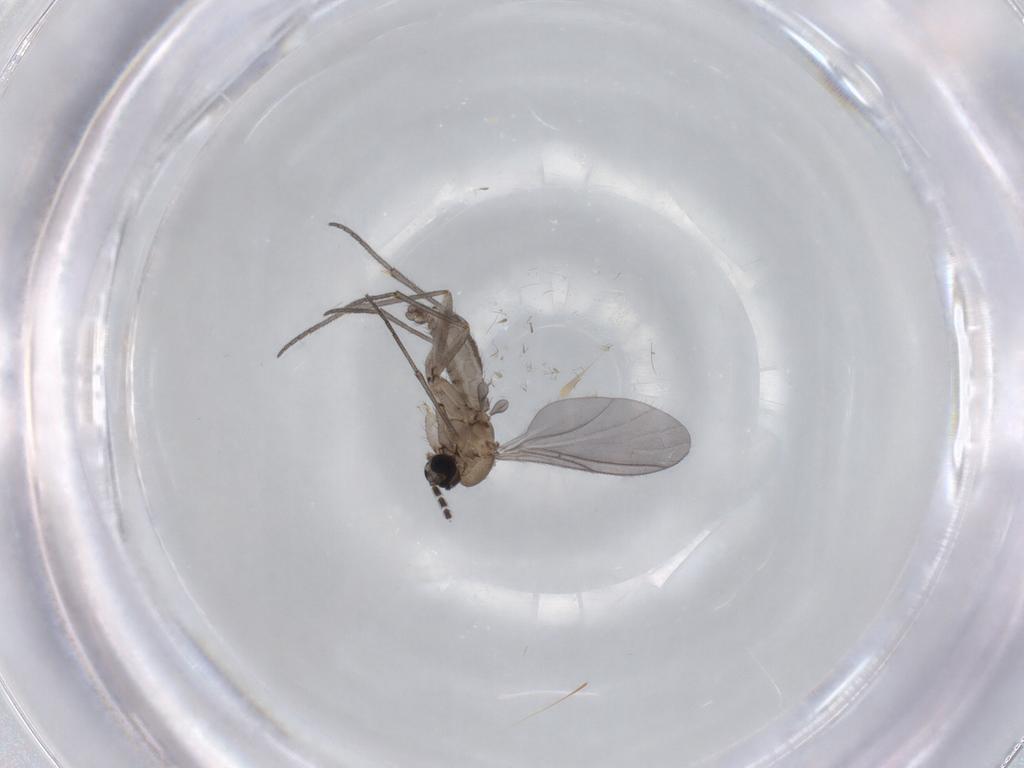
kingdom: Animalia
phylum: Arthropoda
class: Insecta
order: Diptera
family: Sciaridae
